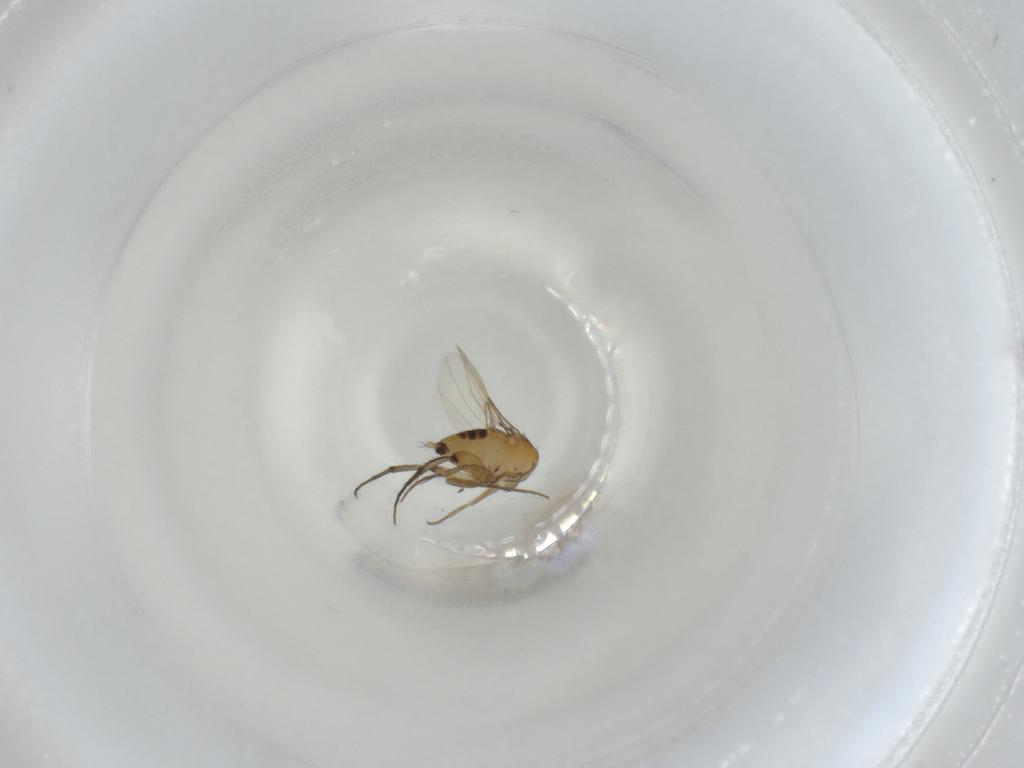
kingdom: Animalia
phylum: Arthropoda
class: Insecta
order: Diptera
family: Phoridae
